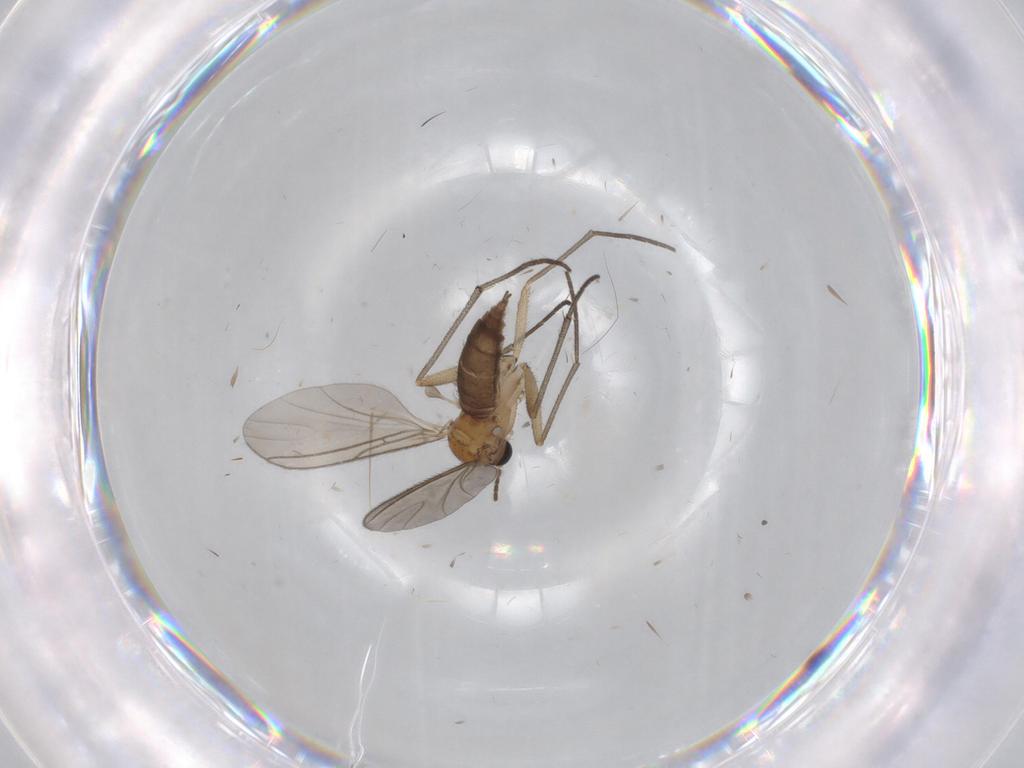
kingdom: Animalia
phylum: Arthropoda
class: Insecta
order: Diptera
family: Sciaridae
